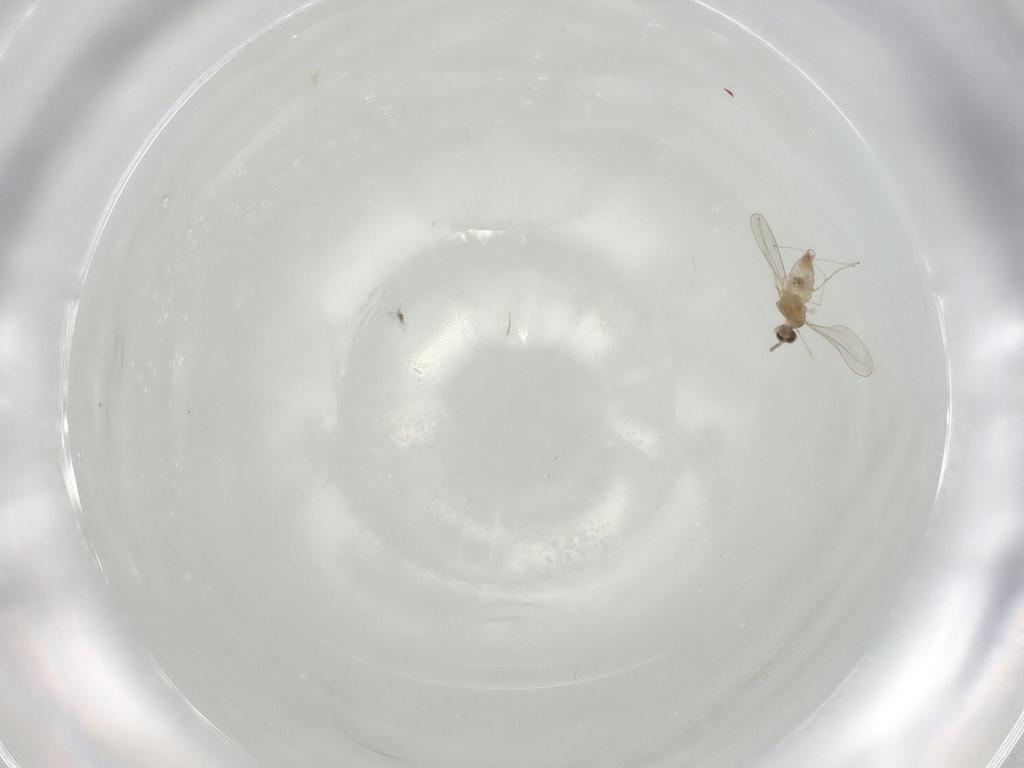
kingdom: Animalia
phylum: Arthropoda
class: Insecta
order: Diptera
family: Cecidomyiidae
